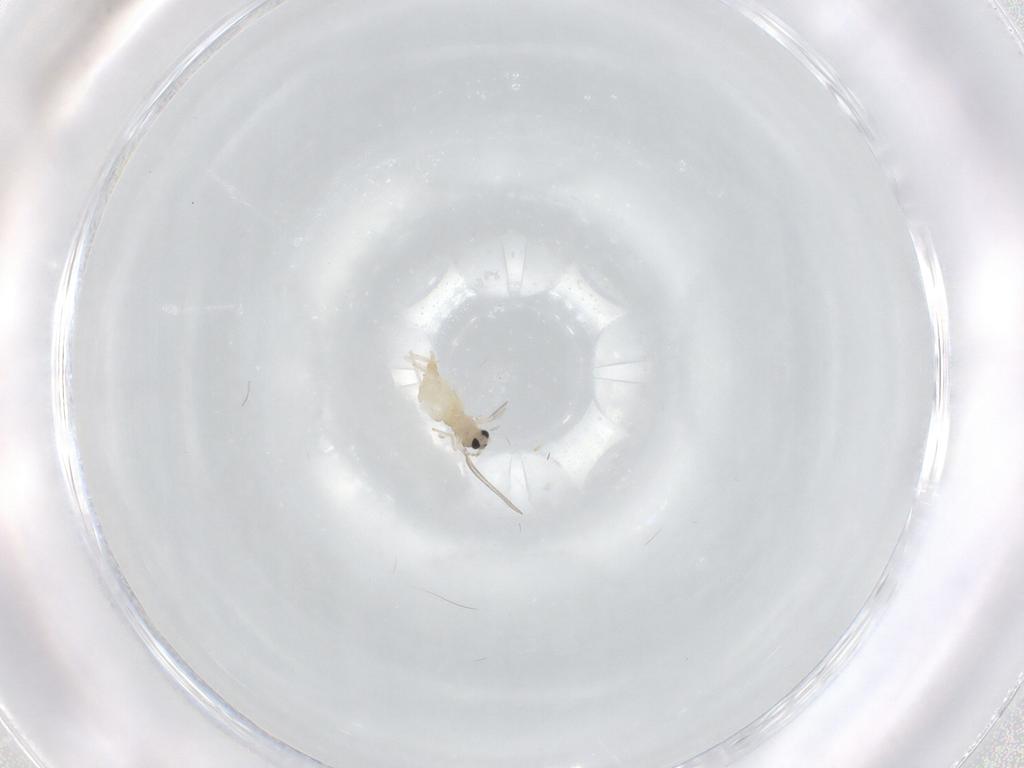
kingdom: Animalia
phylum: Arthropoda
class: Insecta
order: Diptera
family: Cecidomyiidae
